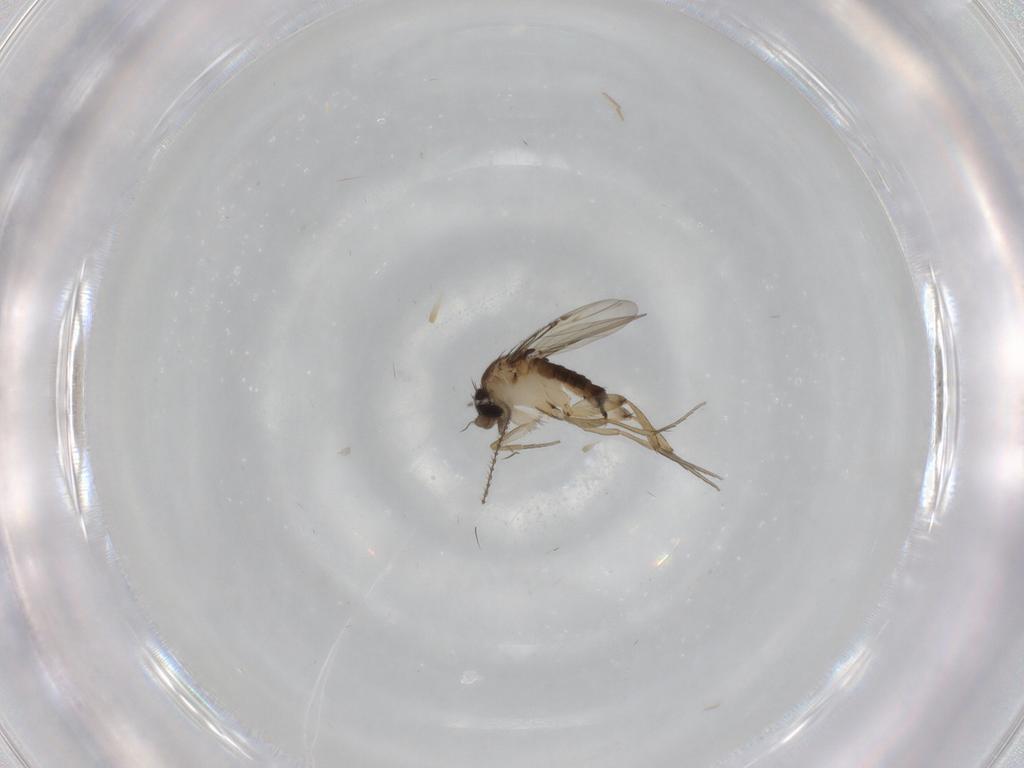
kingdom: Animalia
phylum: Arthropoda
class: Insecta
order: Diptera
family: Phoridae
